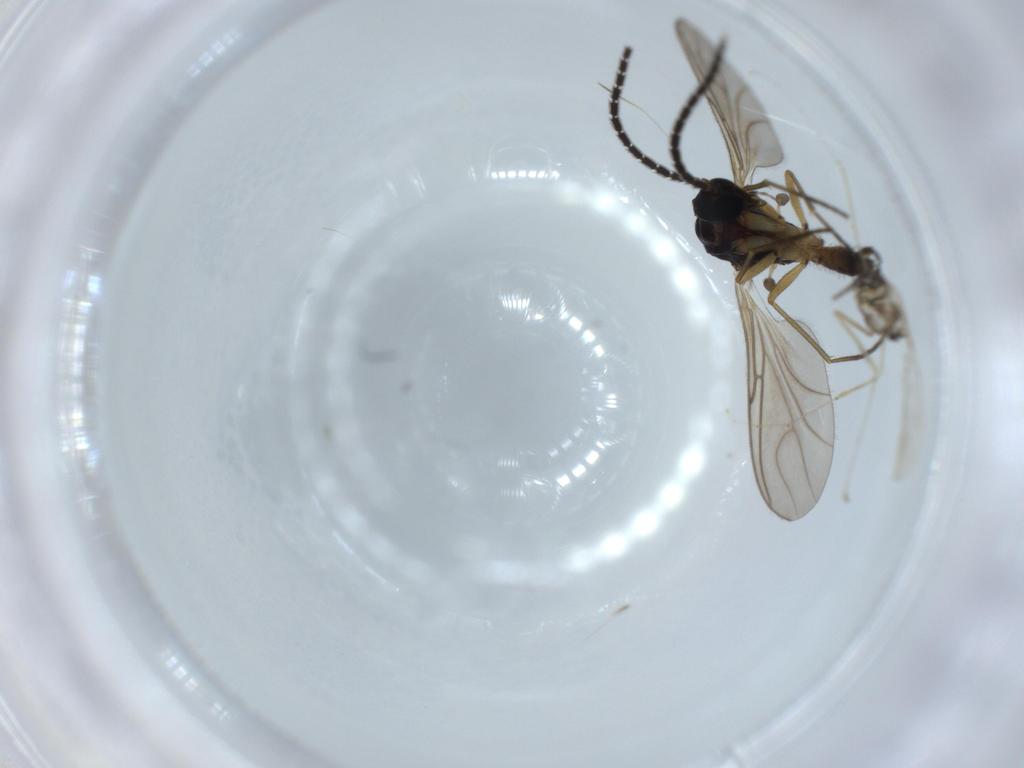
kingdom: Animalia
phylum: Arthropoda
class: Insecta
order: Diptera
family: Sciaridae
